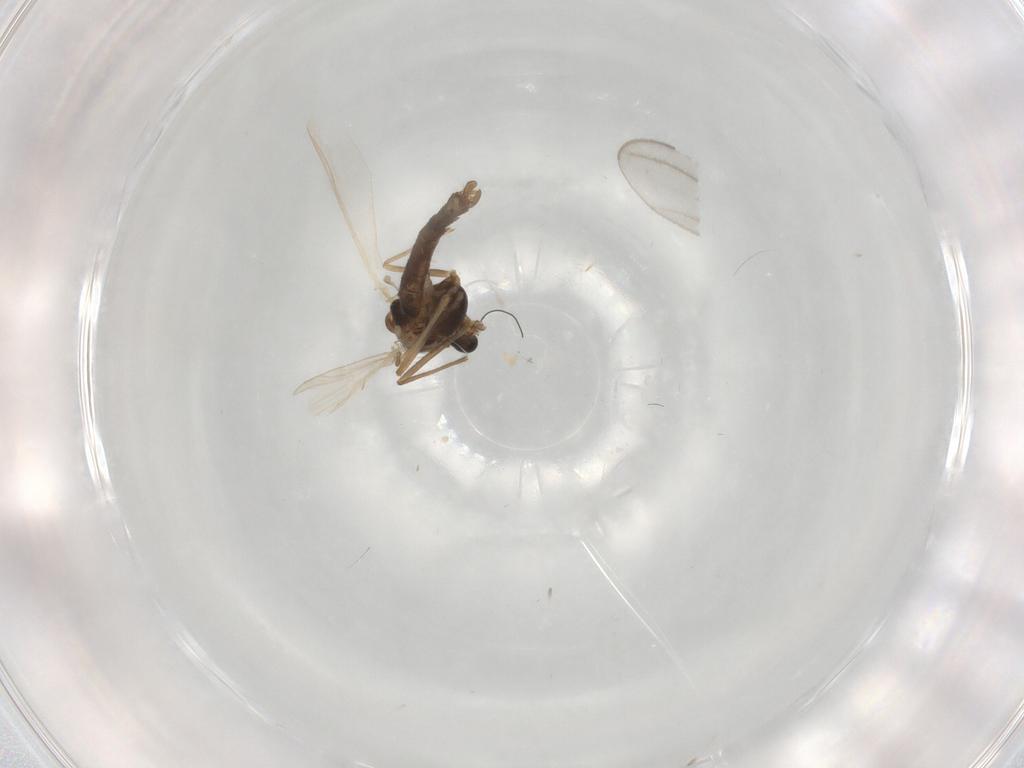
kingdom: Animalia
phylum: Arthropoda
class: Insecta
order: Diptera
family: Chironomidae
